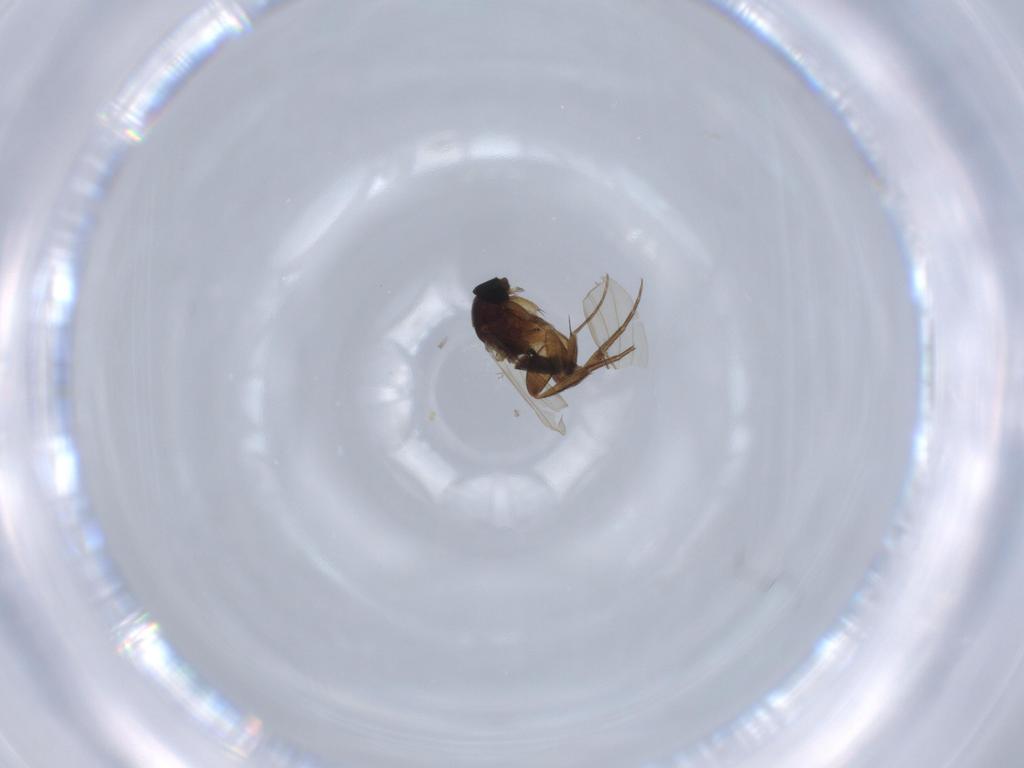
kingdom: Animalia
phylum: Arthropoda
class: Insecta
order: Diptera
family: Phoridae
